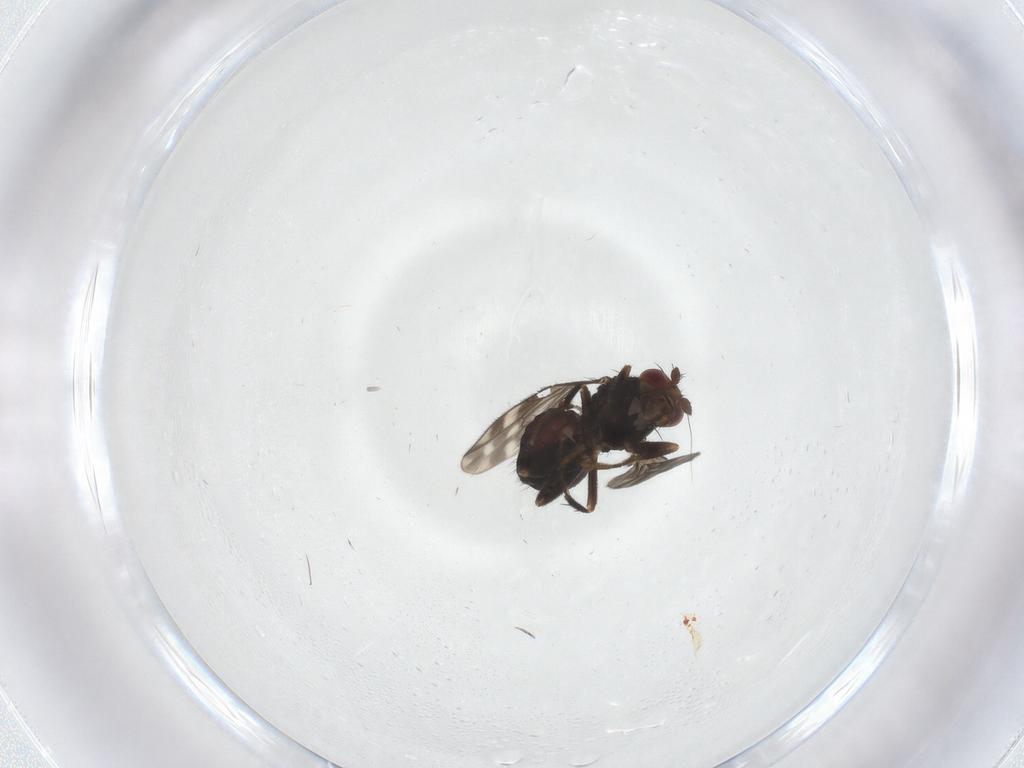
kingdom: Animalia
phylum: Arthropoda
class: Insecta
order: Diptera
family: Sphaeroceridae
